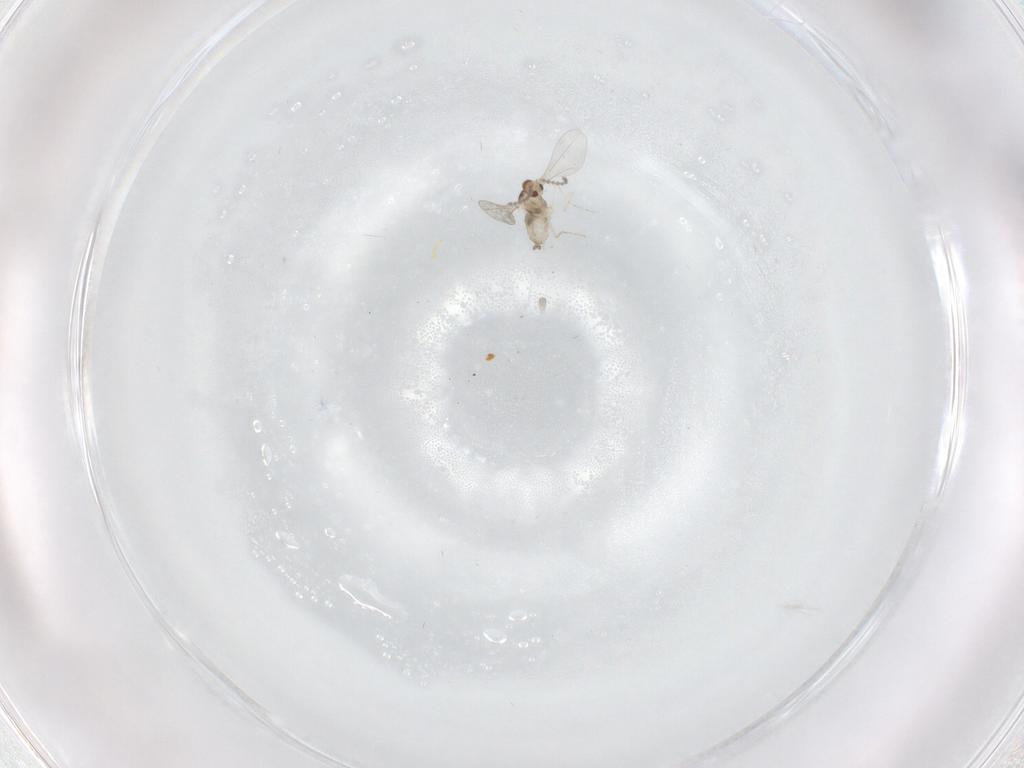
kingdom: Animalia
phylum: Arthropoda
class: Insecta
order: Diptera
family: Cecidomyiidae
